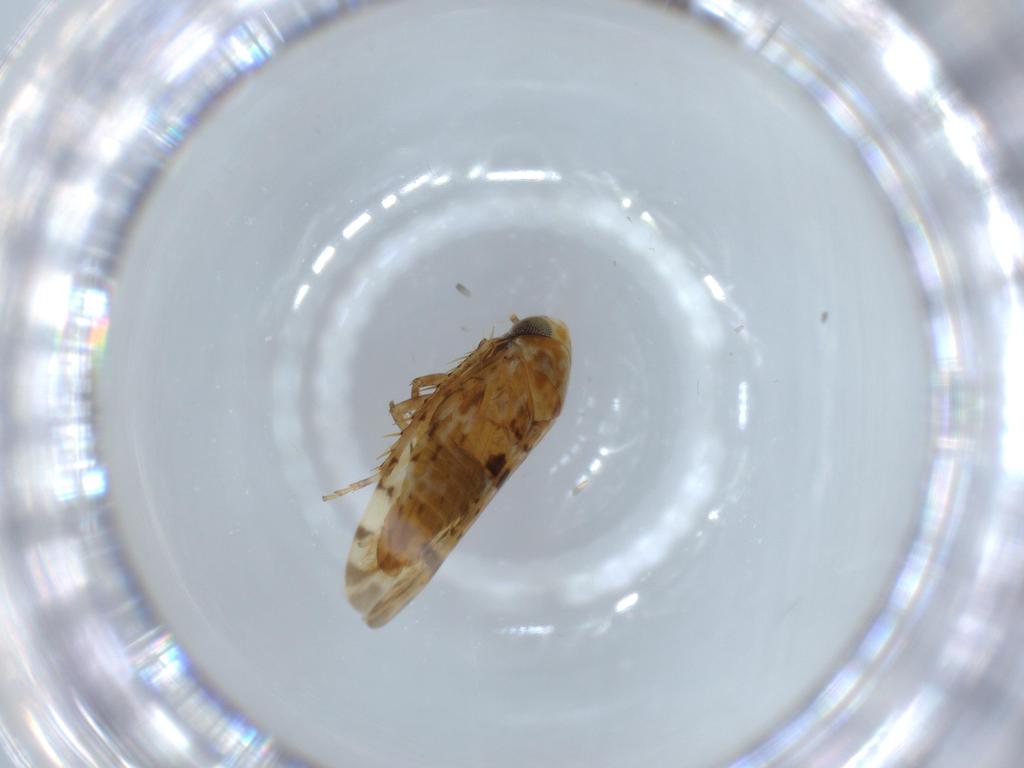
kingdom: Animalia
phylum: Arthropoda
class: Insecta
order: Hemiptera
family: Cicadellidae
